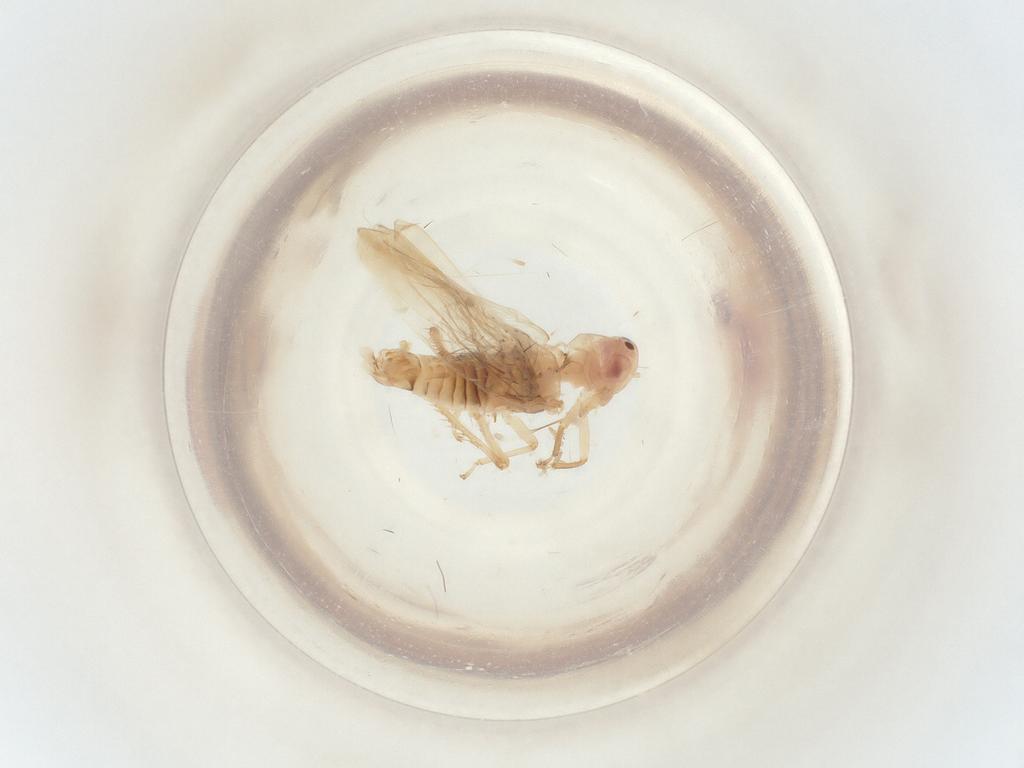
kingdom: Animalia
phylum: Arthropoda
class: Insecta
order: Hemiptera
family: Cicadellidae
